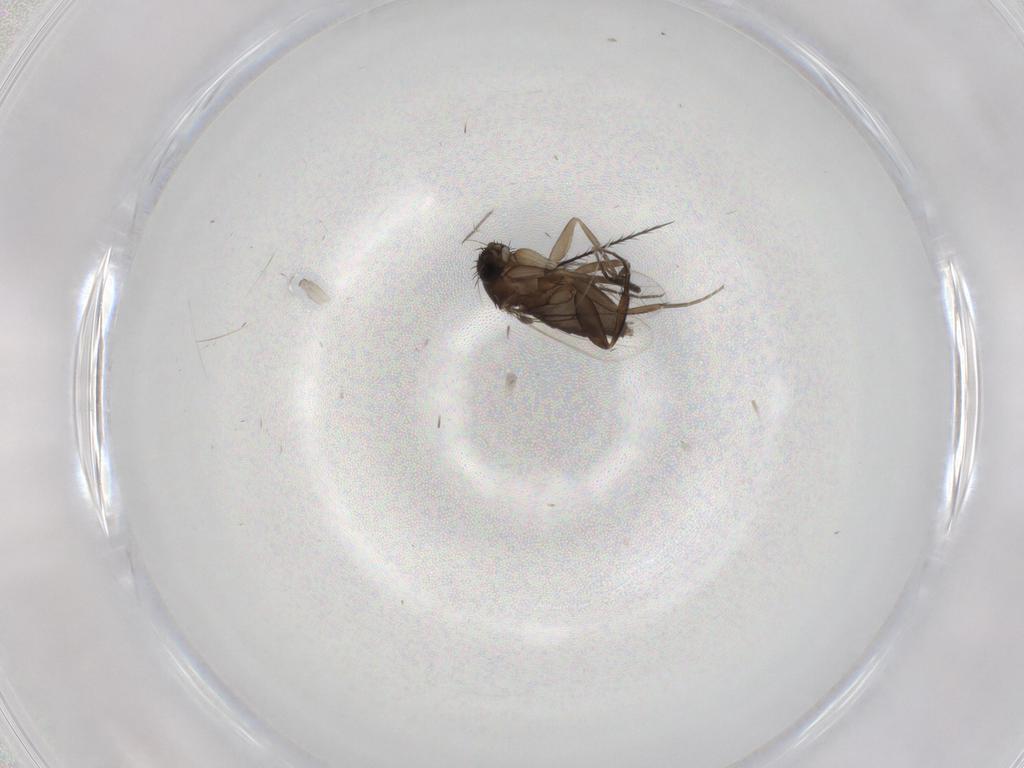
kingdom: Animalia
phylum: Arthropoda
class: Insecta
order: Diptera
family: Phoridae
